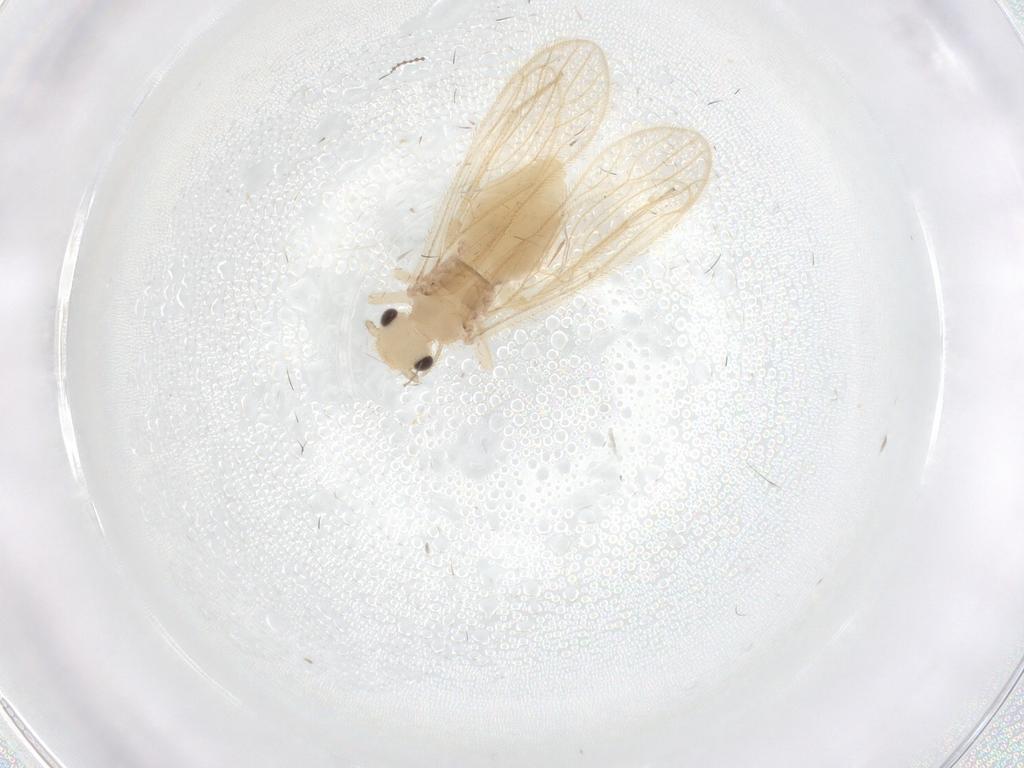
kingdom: Animalia
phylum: Arthropoda
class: Insecta
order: Psocodea
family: Cladiopsocidae
